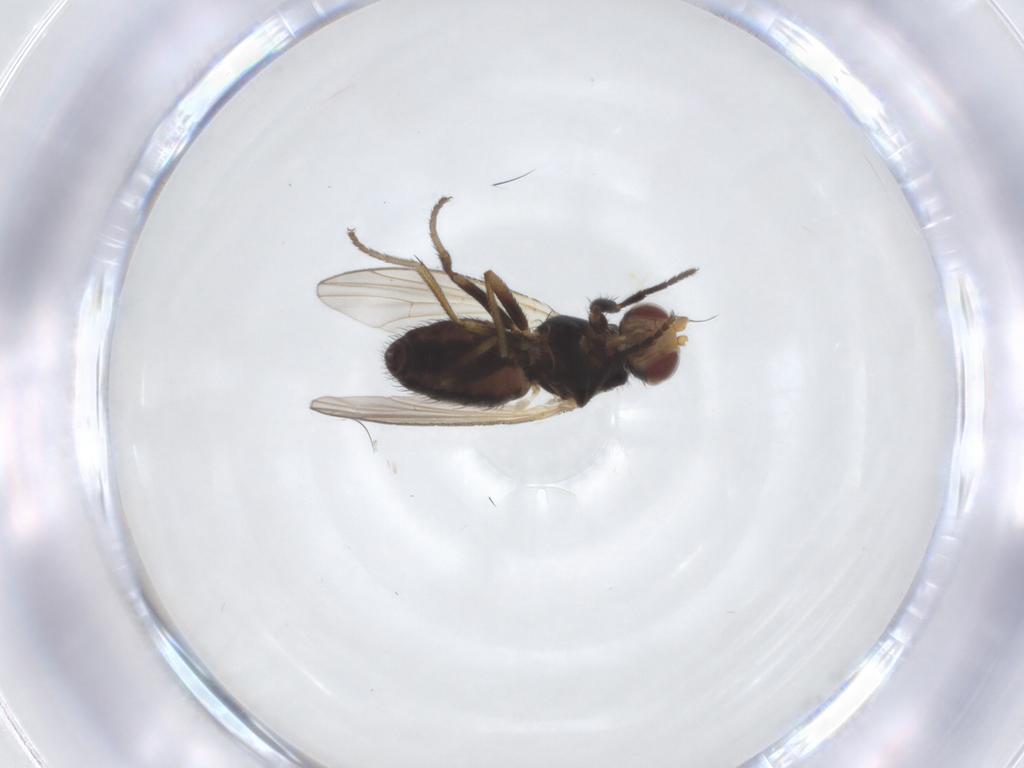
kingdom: Animalia
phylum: Arthropoda
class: Insecta
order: Diptera
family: Heleomyzidae
